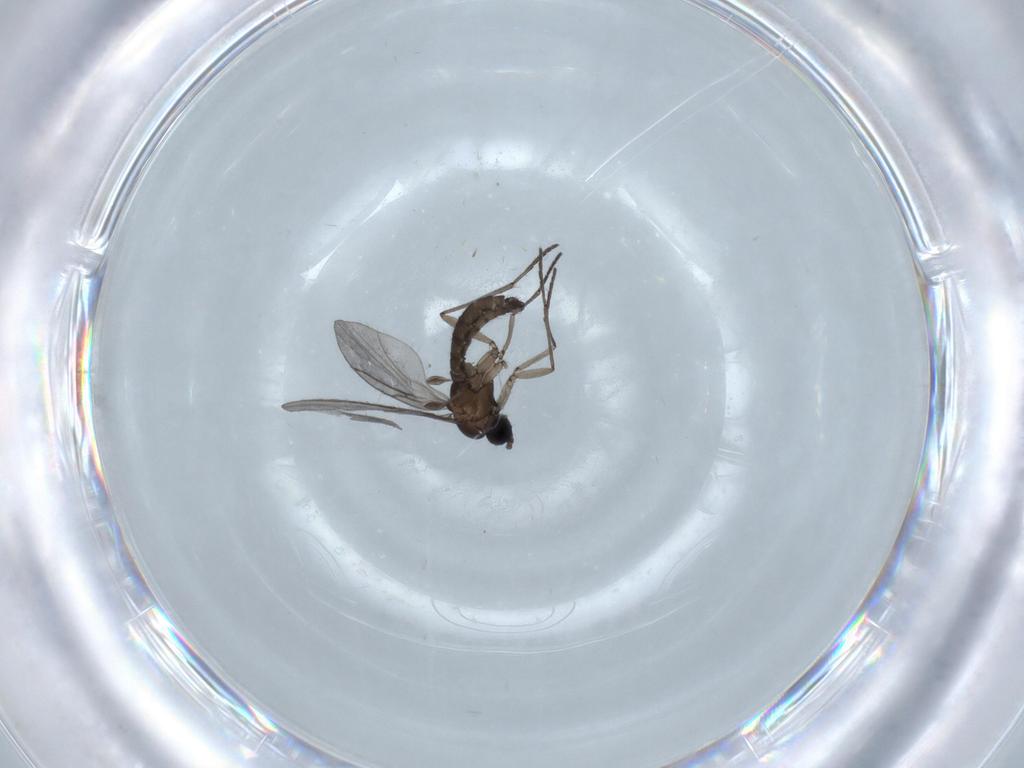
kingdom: Animalia
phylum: Arthropoda
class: Insecta
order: Diptera
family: Sciaridae
